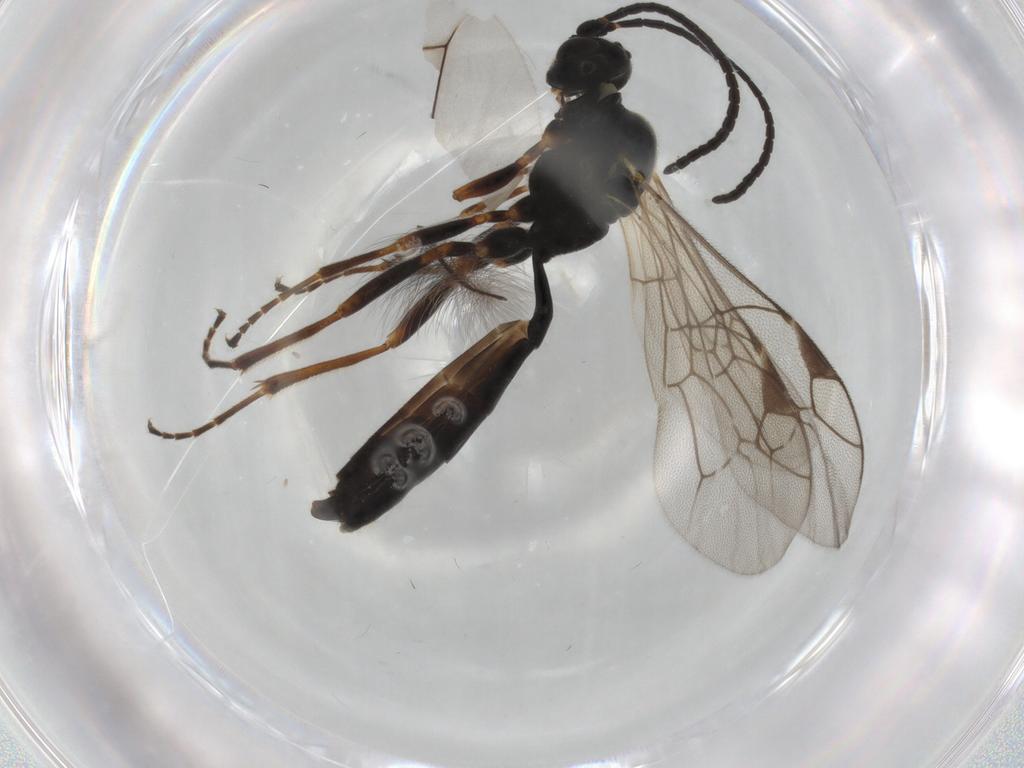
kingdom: Animalia
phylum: Arthropoda
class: Insecta
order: Hymenoptera
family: Ichneumonidae
